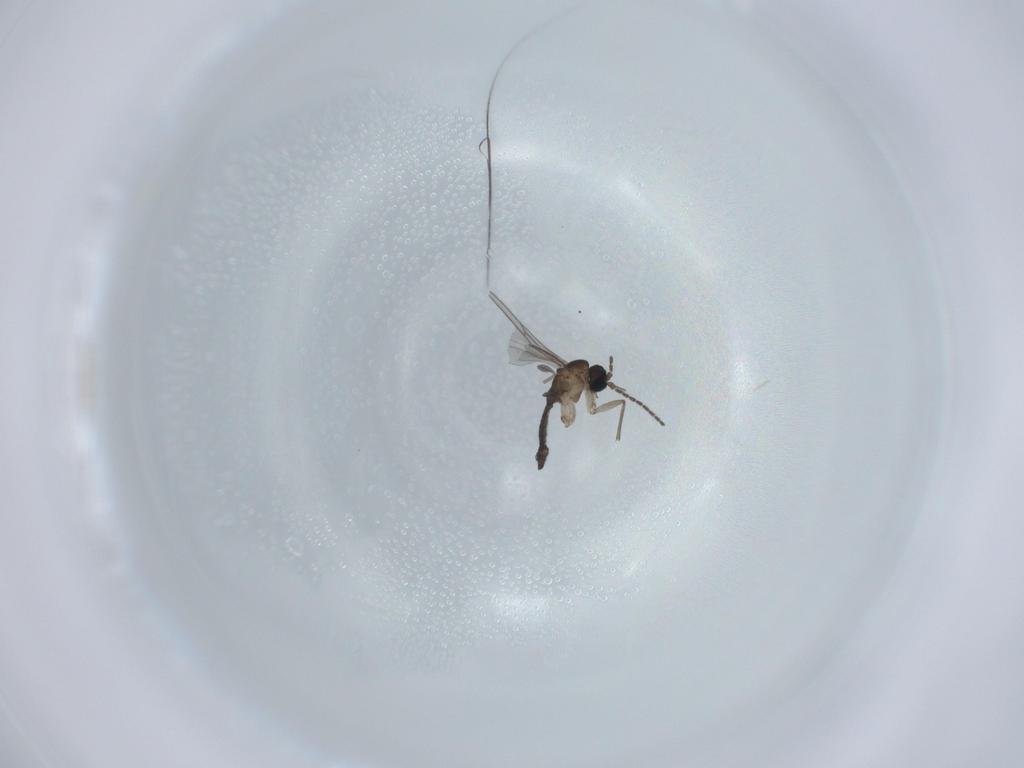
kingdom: Animalia
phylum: Arthropoda
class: Insecta
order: Diptera
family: Sciaridae
